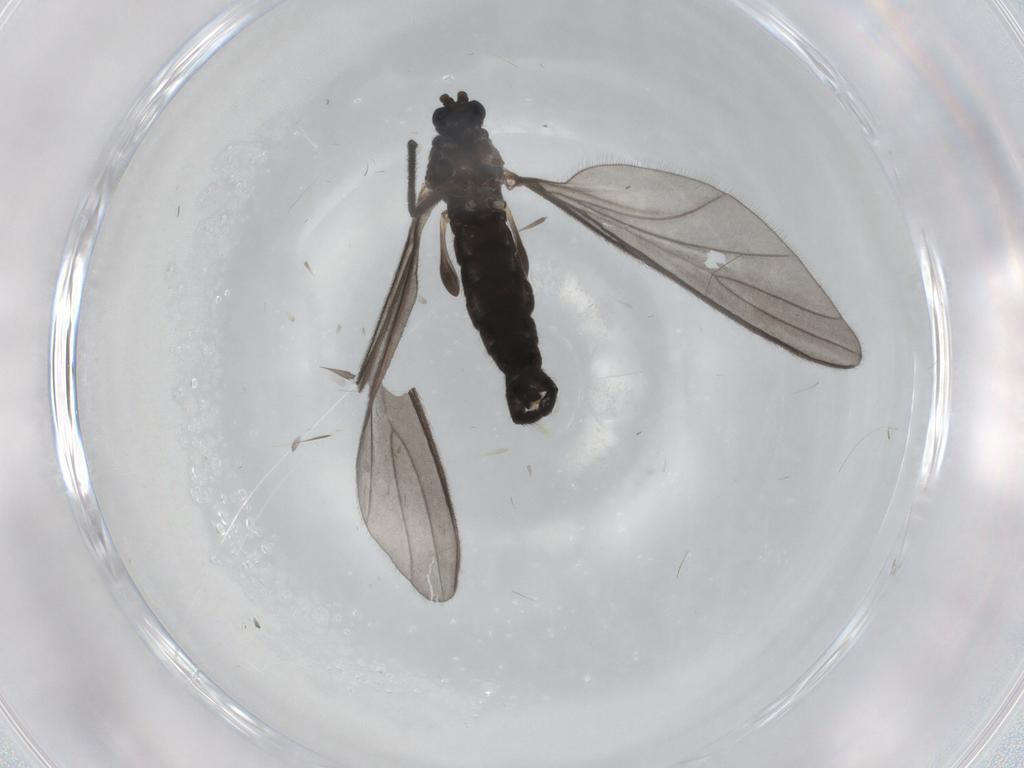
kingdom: Animalia
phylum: Arthropoda
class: Insecta
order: Diptera
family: Sciaridae
